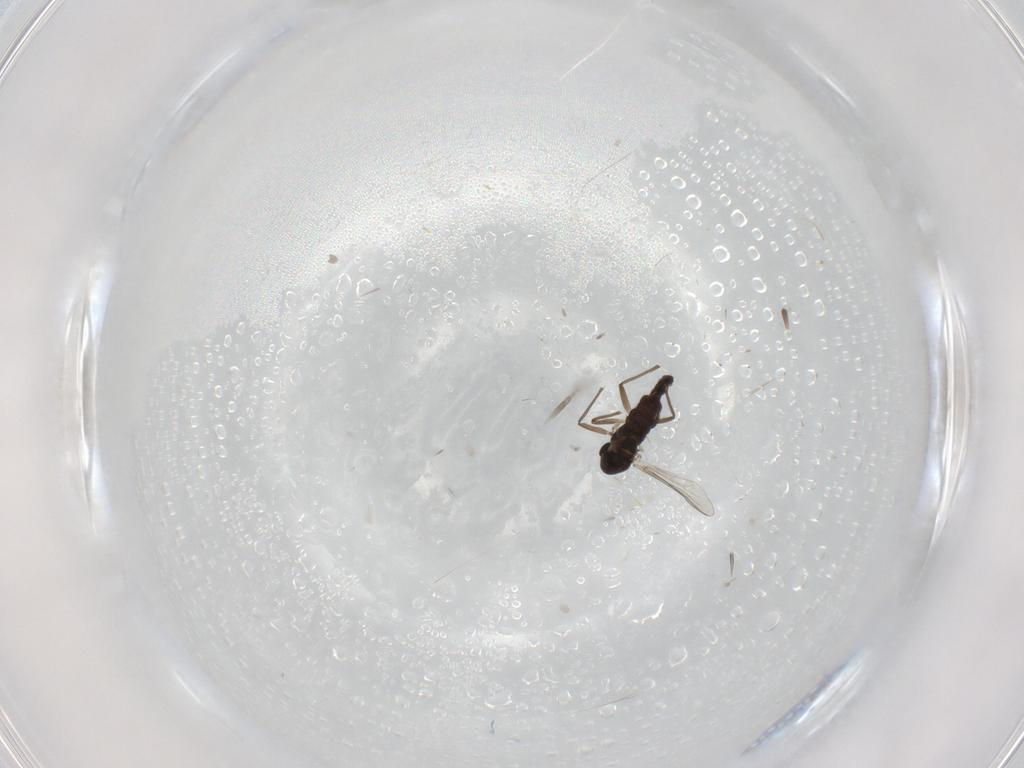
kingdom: Animalia
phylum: Arthropoda
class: Insecta
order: Diptera
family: Chironomidae
